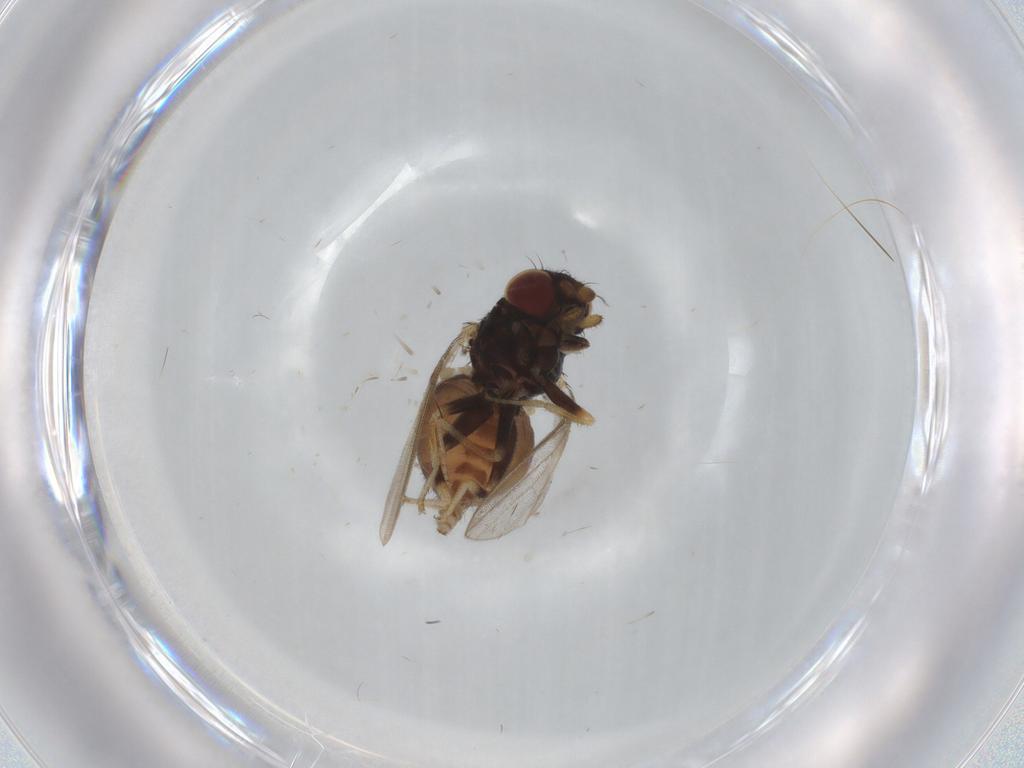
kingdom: Animalia
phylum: Arthropoda
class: Insecta
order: Diptera
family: Milichiidae
